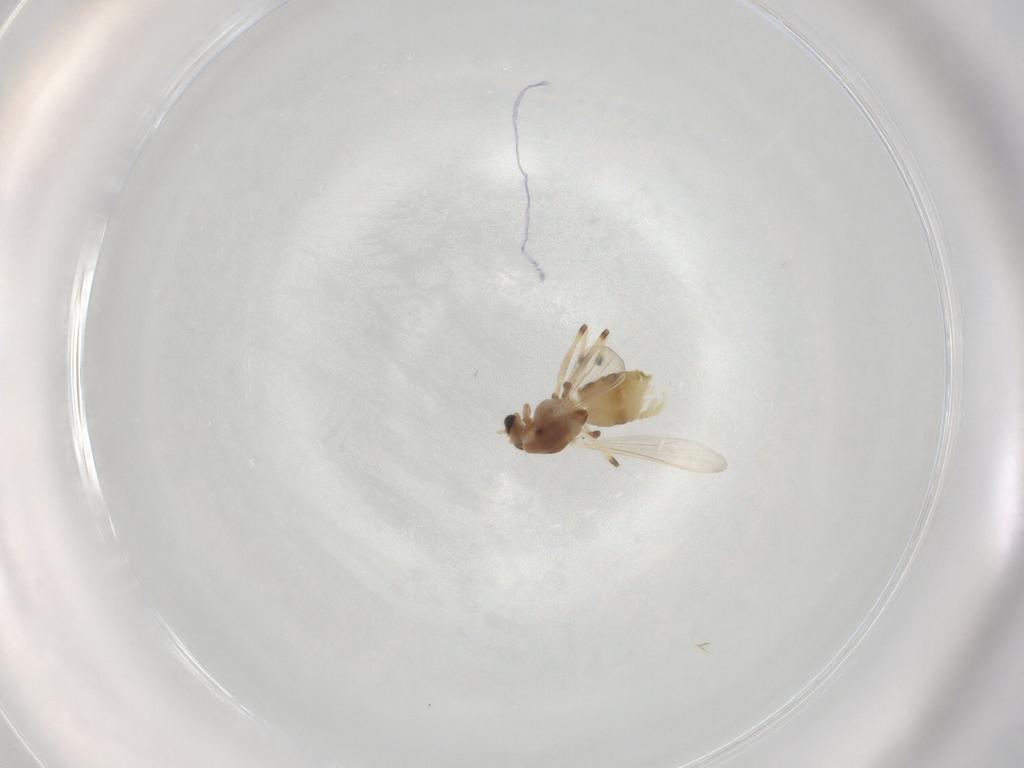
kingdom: Animalia
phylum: Arthropoda
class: Insecta
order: Diptera
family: Chironomidae
